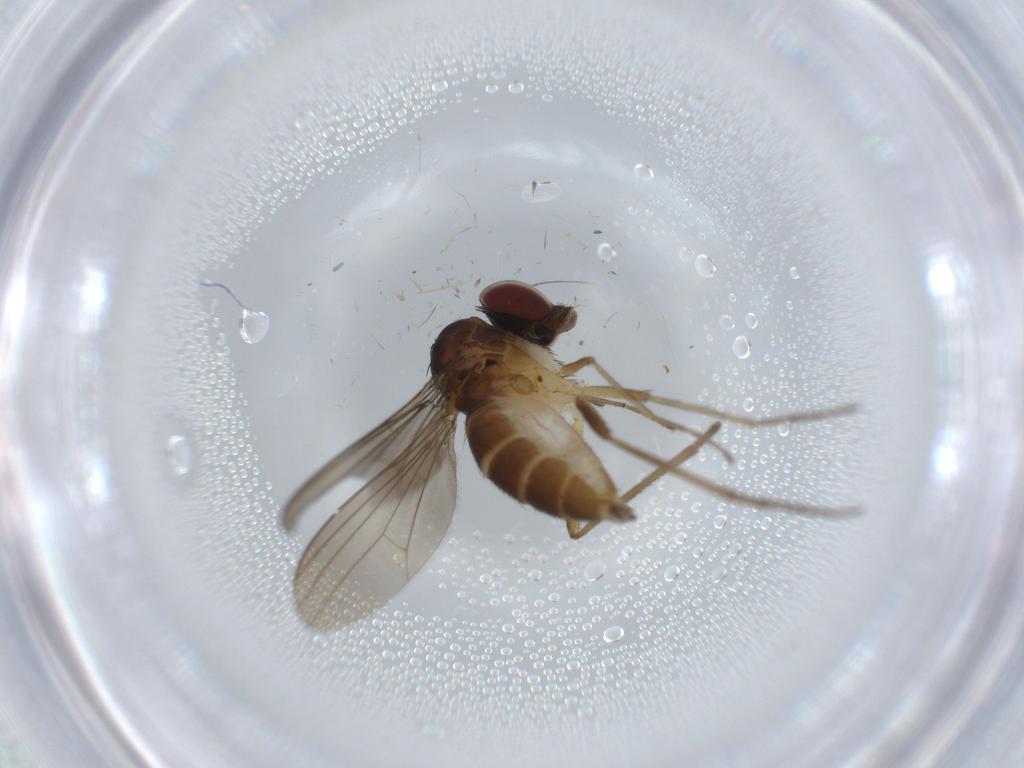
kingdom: Animalia
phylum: Arthropoda
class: Insecta
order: Diptera
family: Dolichopodidae
